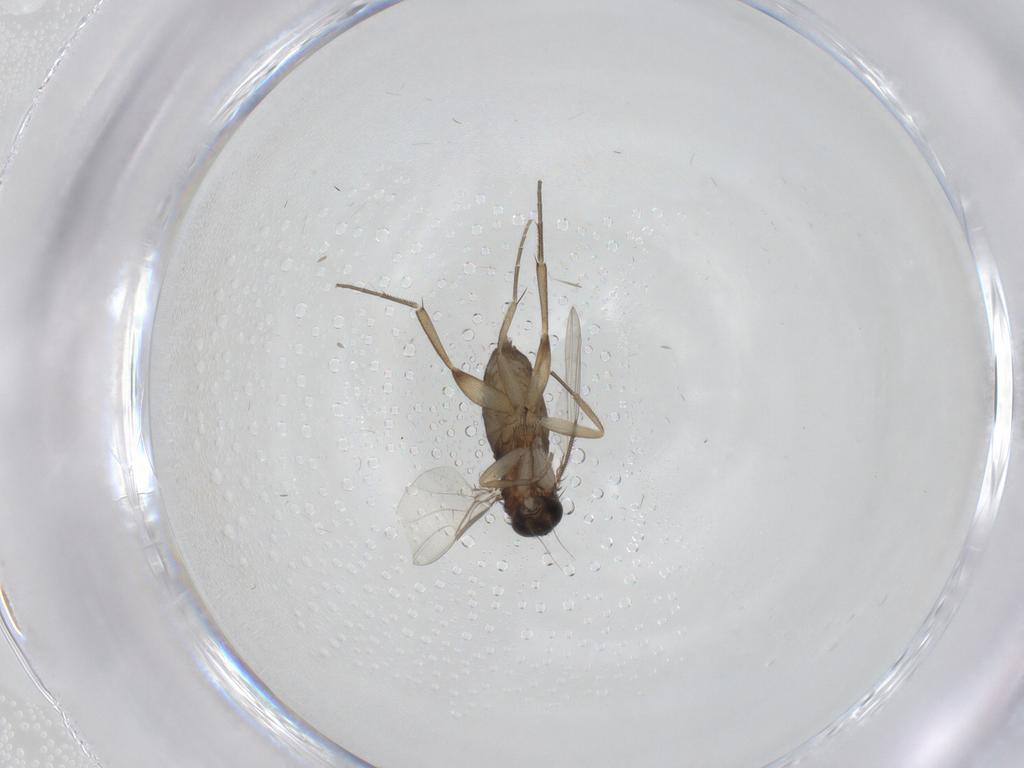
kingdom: Animalia
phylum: Arthropoda
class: Insecta
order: Diptera
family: Phoridae
